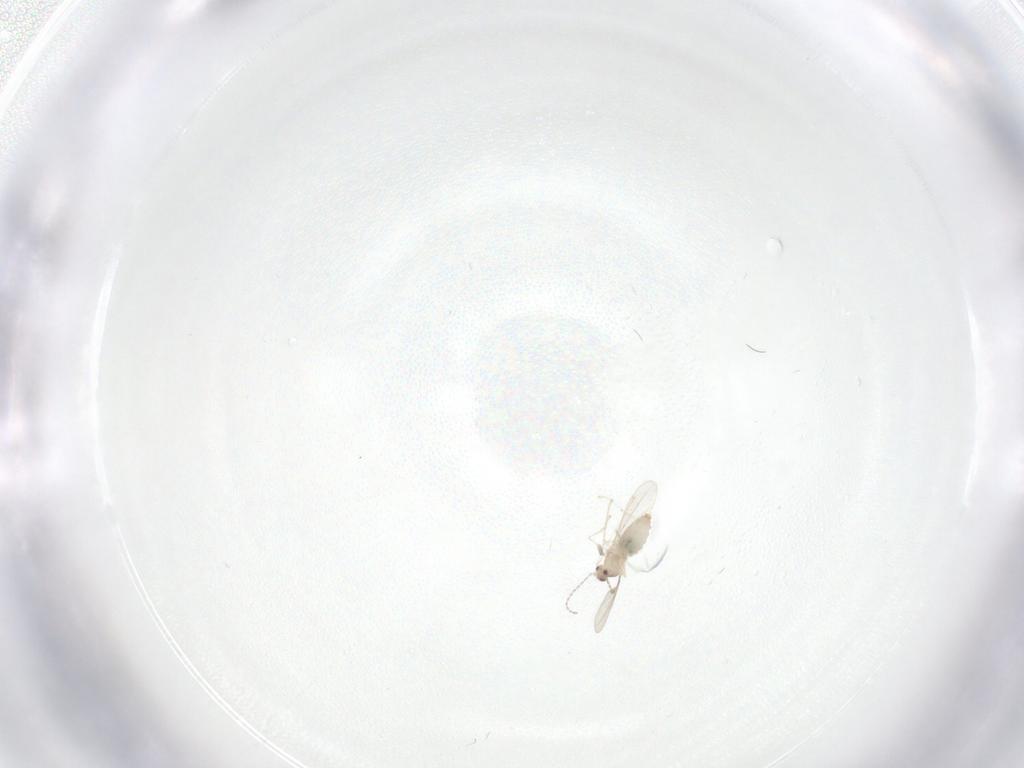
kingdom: Animalia
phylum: Arthropoda
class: Insecta
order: Diptera
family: Cecidomyiidae
